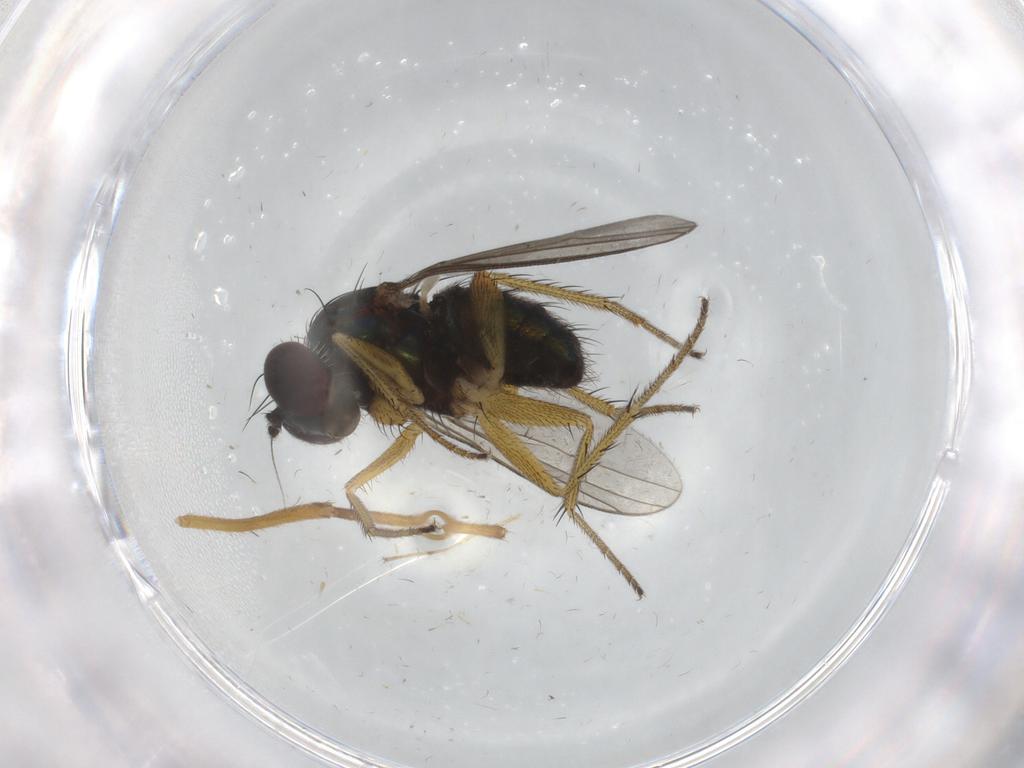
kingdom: Animalia
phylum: Arthropoda
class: Insecta
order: Diptera
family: Dolichopodidae
